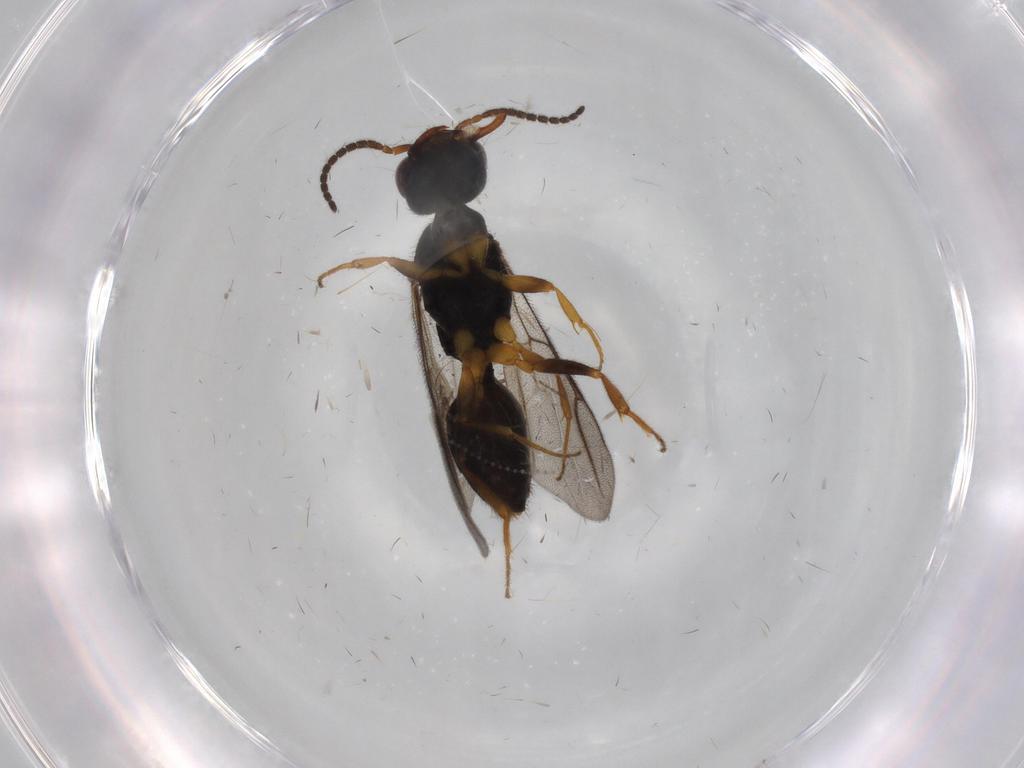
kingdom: Animalia
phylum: Arthropoda
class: Insecta
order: Hymenoptera
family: Bethylidae
